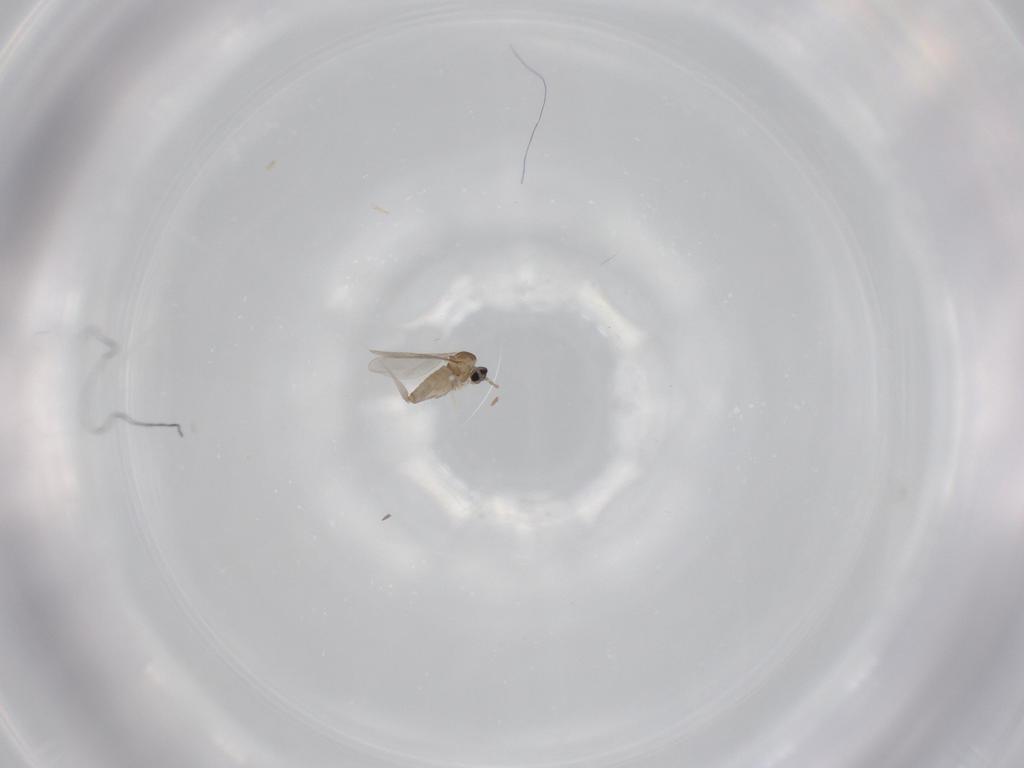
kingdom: Animalia
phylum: Arthropoda
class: Insecta
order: Diptera
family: Cecidomyiidae
